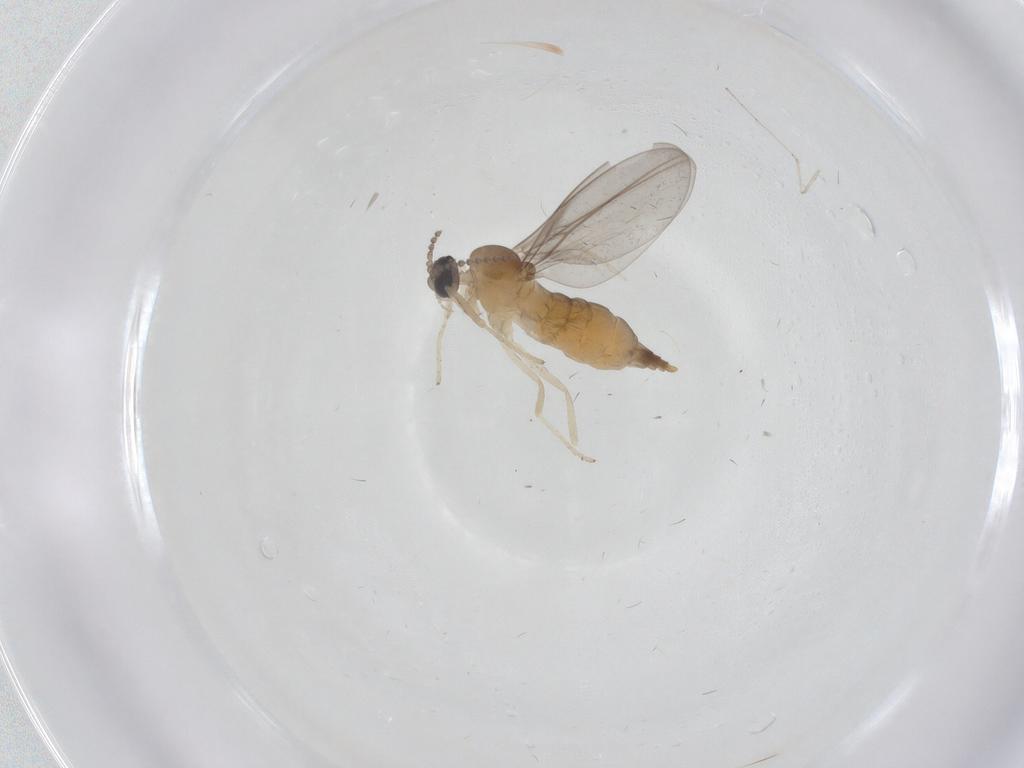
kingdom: Animalia
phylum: Arthropoda
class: Insecta
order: Diptera
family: Cecidomyiidae
